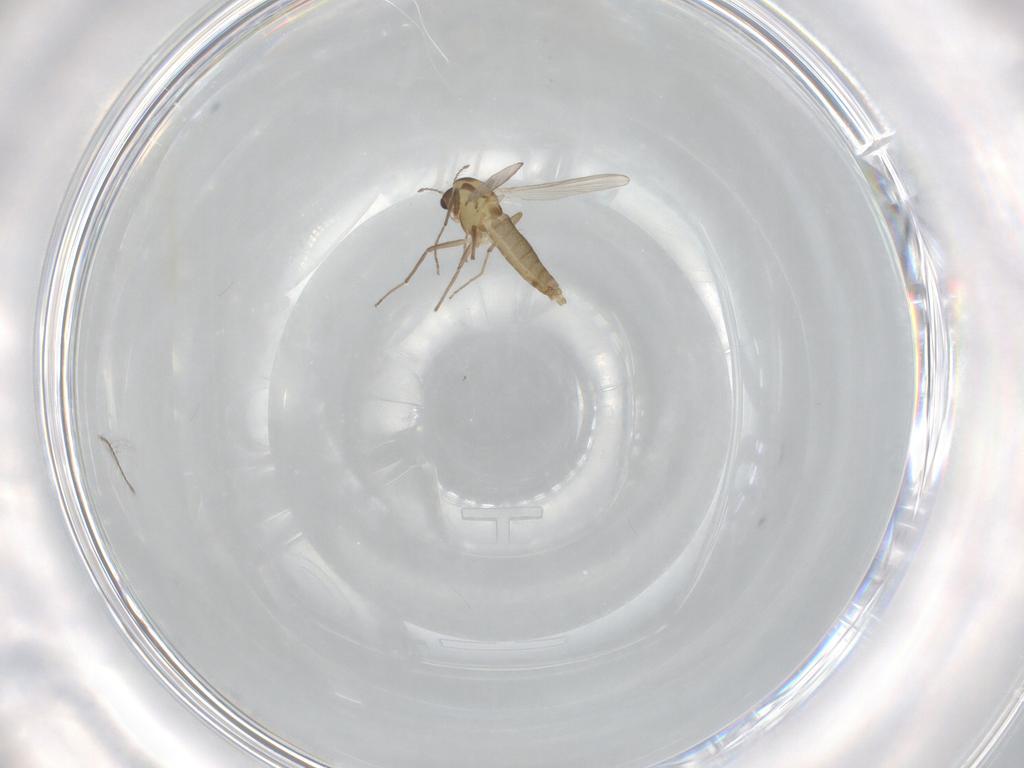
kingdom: Animalia
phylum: Arthropoda
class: Insecta
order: Diptera
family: Chironomidae
